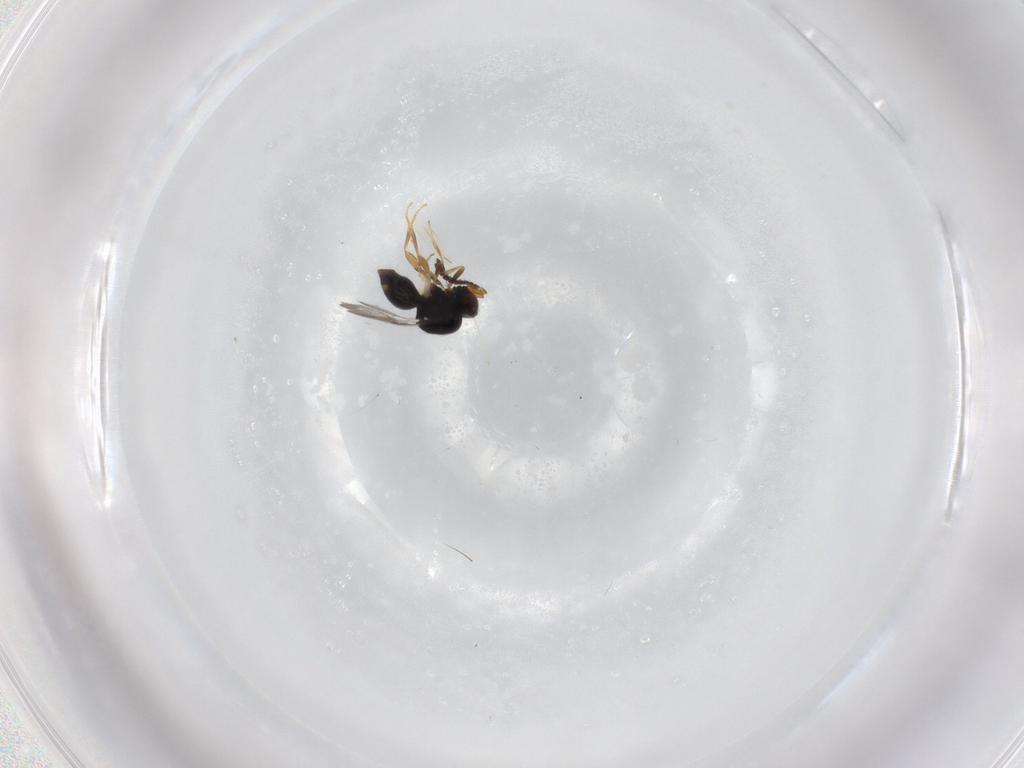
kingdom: Animalia
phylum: Arthropoda
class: Insecta
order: Hymenoptera
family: Ceraphronidae
